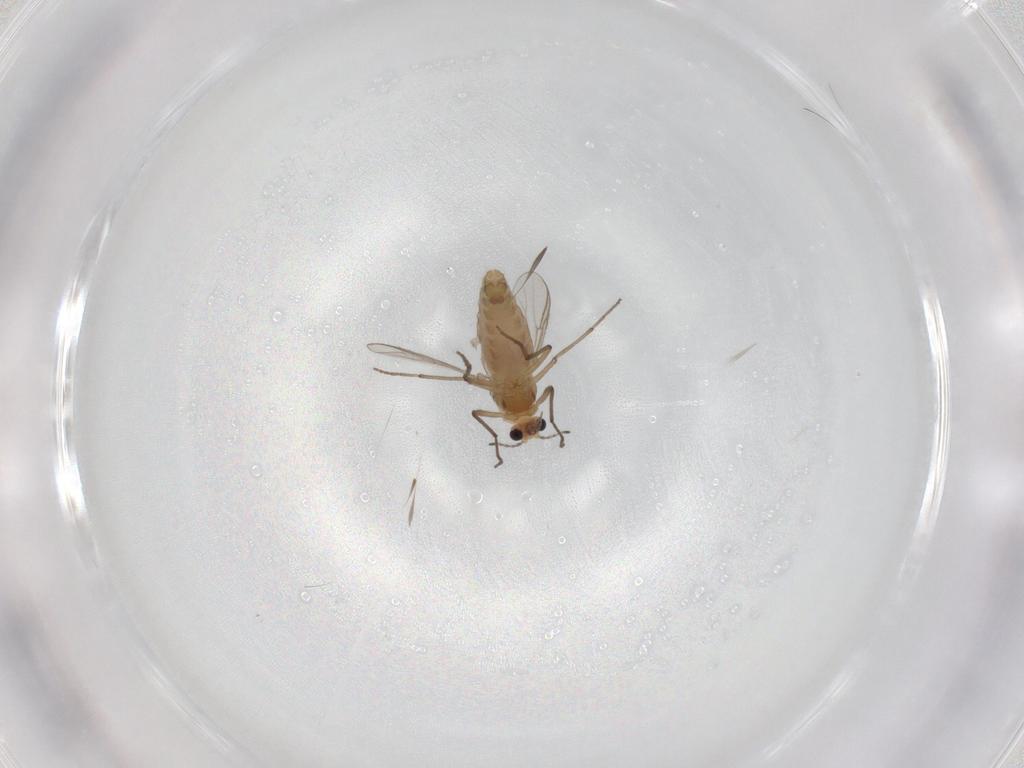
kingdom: Animalia
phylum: Arthropoda
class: Insecta
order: Diptera
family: Chironomidae
